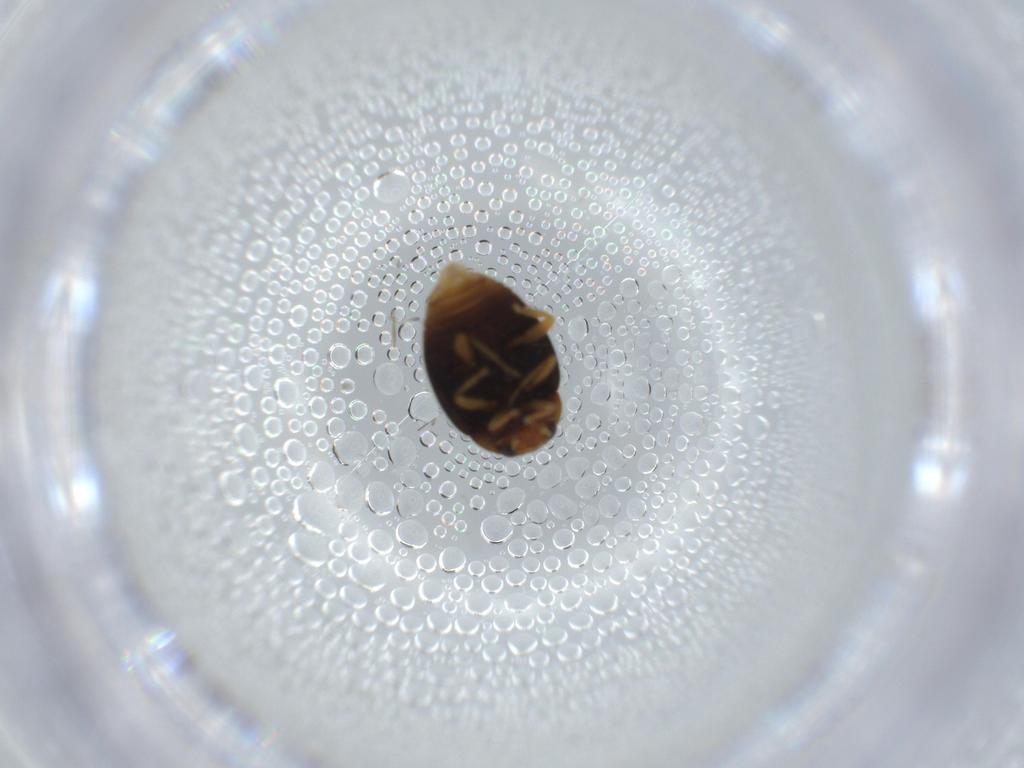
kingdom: Animalia
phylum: Arthropoda
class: Insecta
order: Coleoptera
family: Coccinellidae
